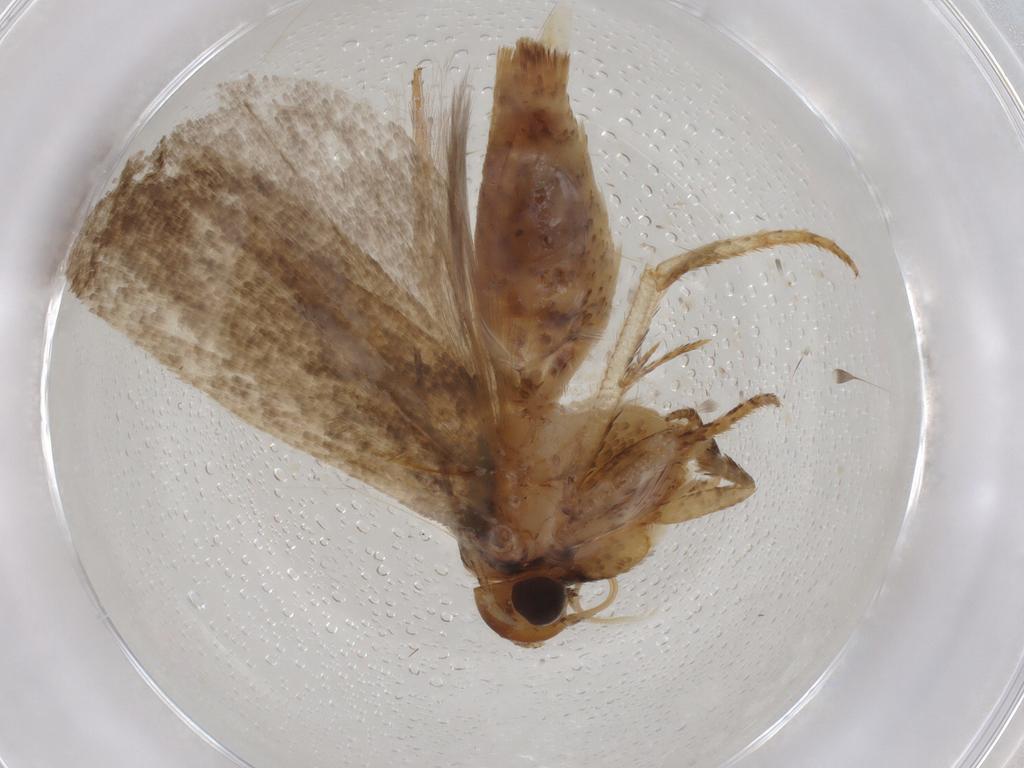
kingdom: Animalia
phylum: Arthropoda
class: Insecta
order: Lepidoptera
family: Gelechiidae
